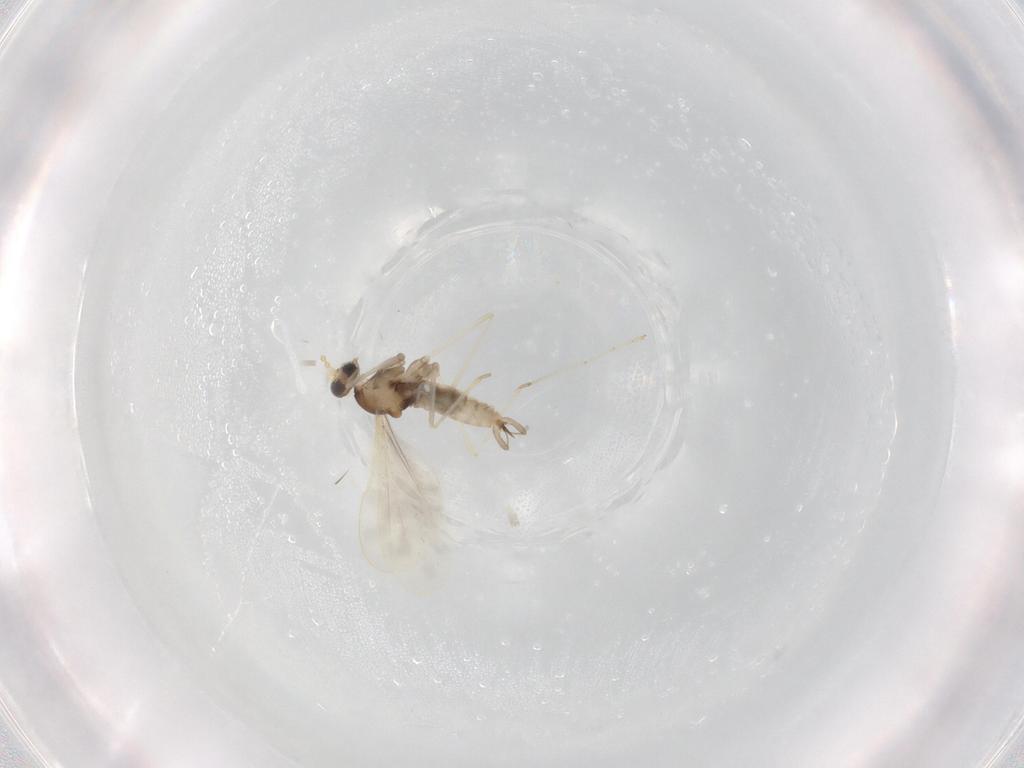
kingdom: Animalia
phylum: Arthropoda
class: Insecta
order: Diptera
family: Cecidomyiidae
